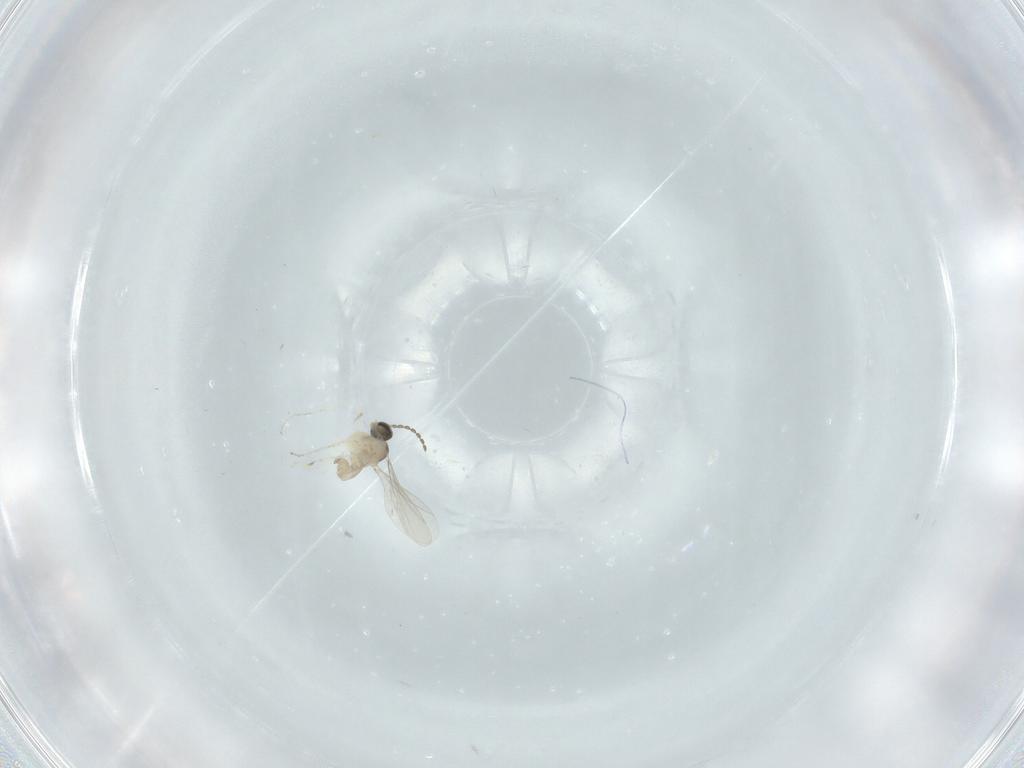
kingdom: Animalia
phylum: Arthropoda
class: Insecta
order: Diptera
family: Cecidomyiidae
